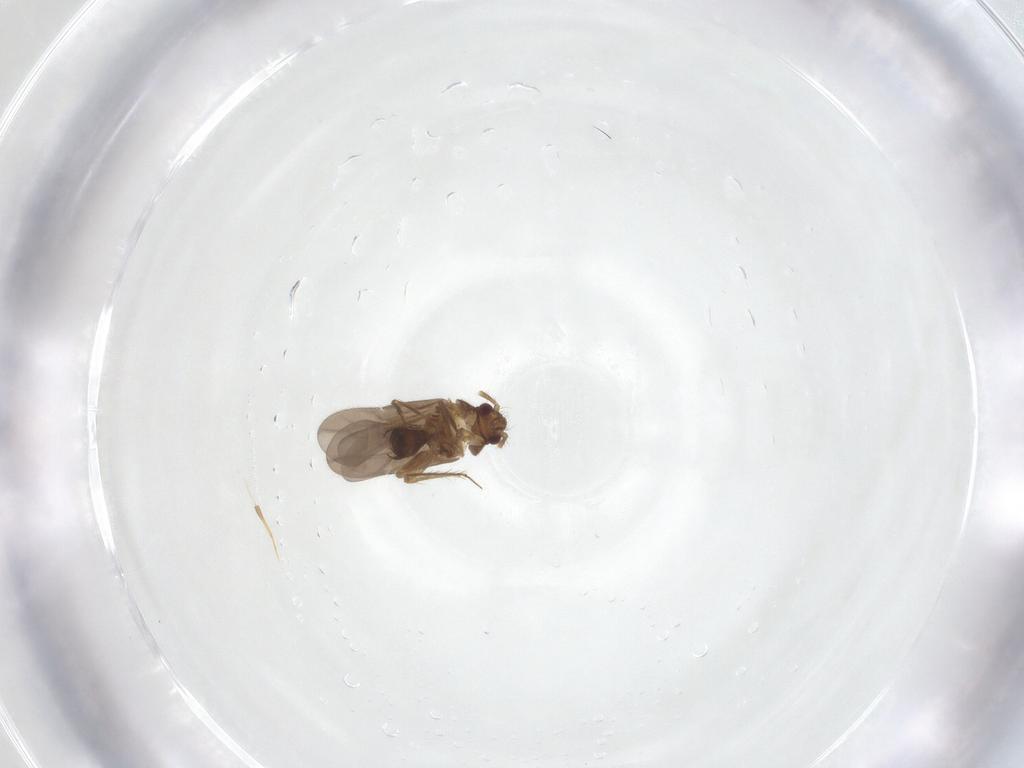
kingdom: Animalia
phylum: Arthropoda
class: Insecta
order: Hemiptera
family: Ceratocombidae
